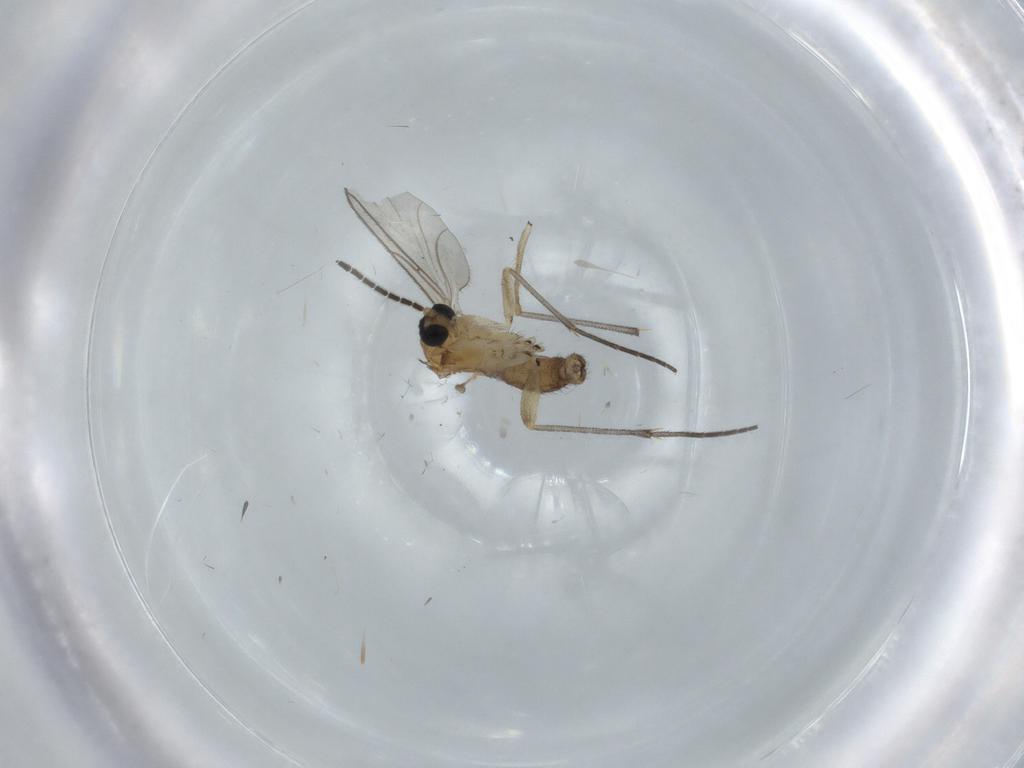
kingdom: Animalia
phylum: Arthropoda
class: Insecta
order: Diptera
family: Sciaridae
